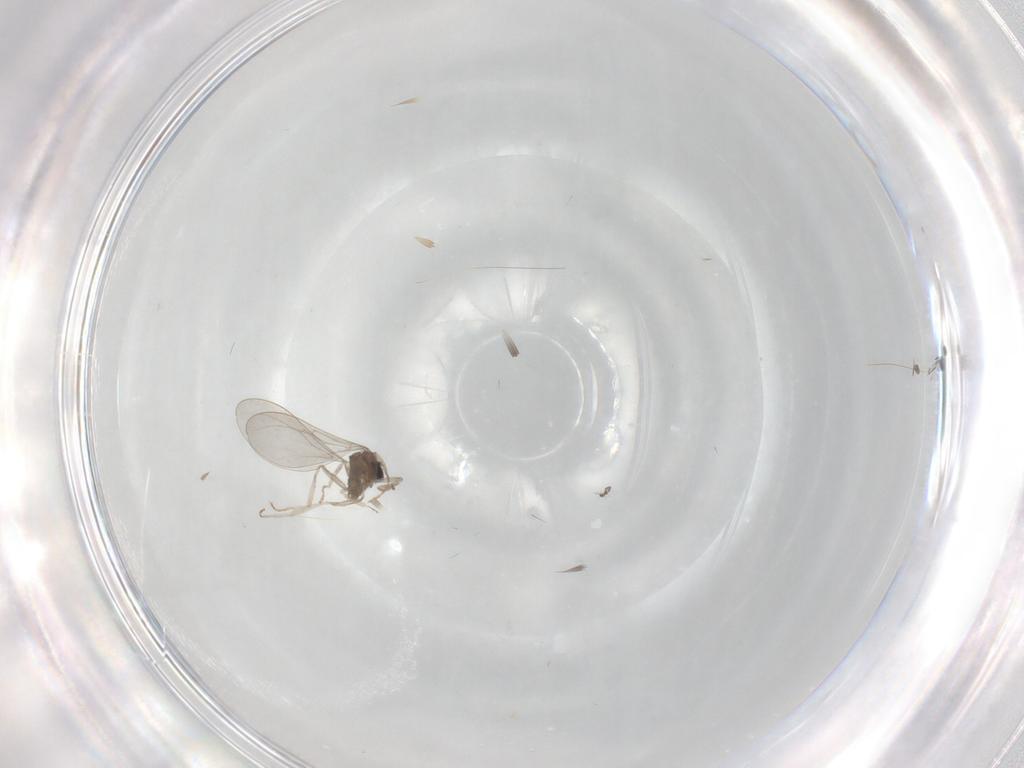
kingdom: Animalia
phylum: Arthropoda
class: Insecta
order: Diptera
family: Cecidomyiidae
